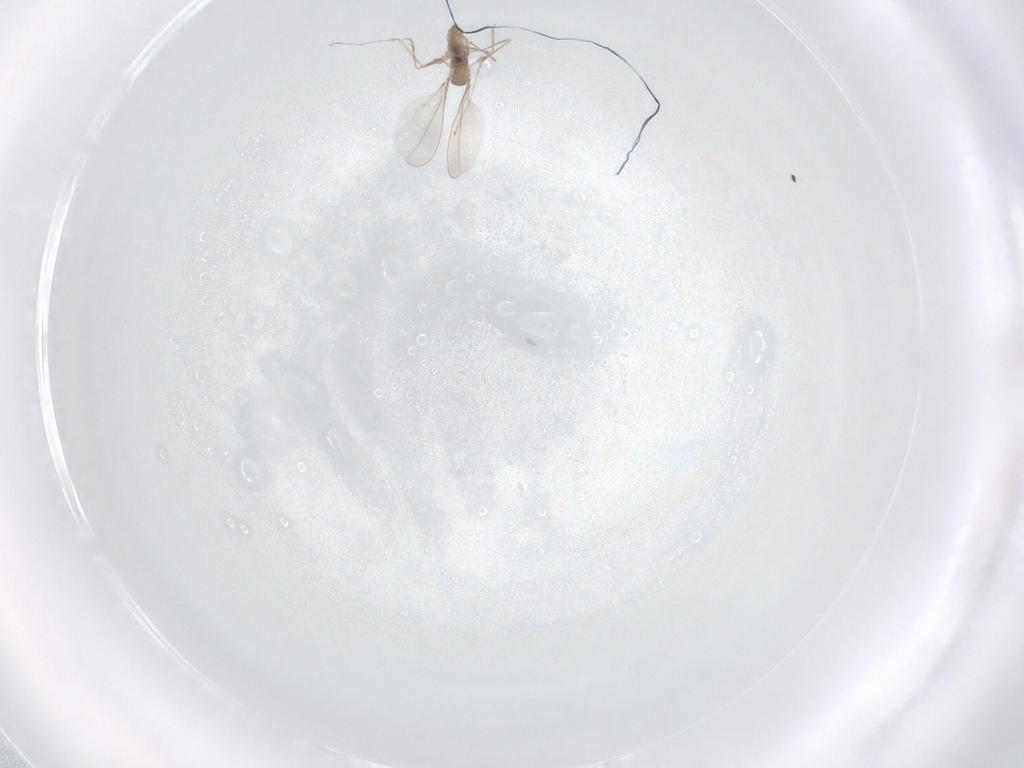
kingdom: Animalia
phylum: Arthropoda
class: Insecta
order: Diptera
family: Cecidomyiidae
